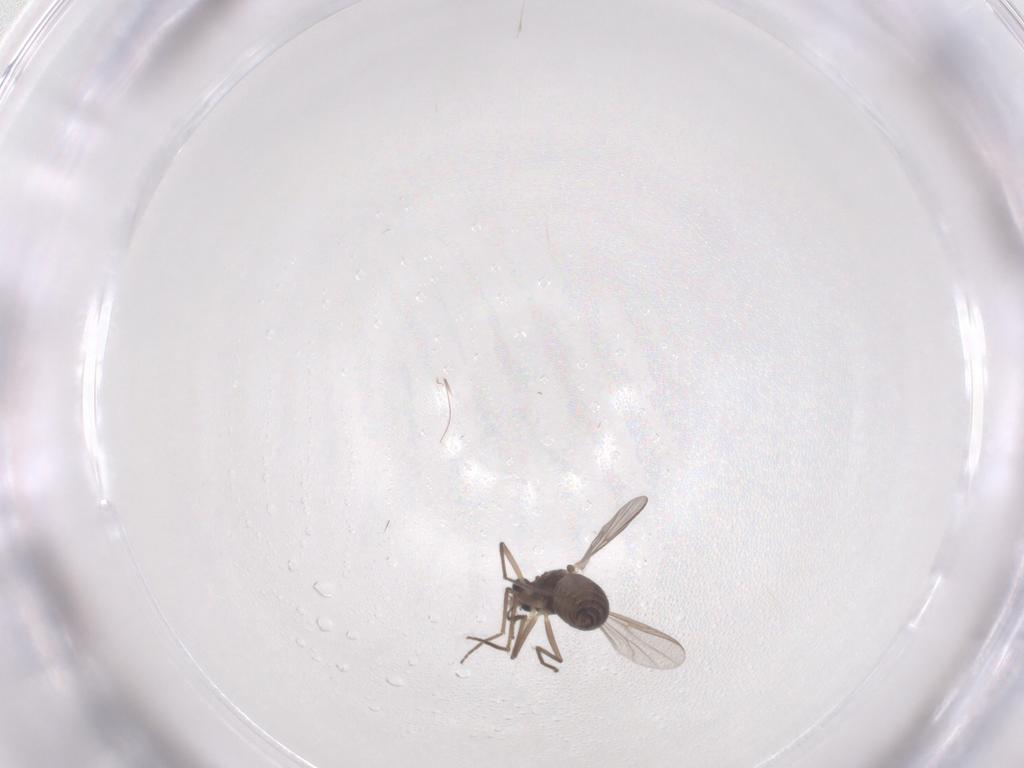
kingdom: Animalia
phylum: Arthropoda
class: Insecta
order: Diptera
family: Chironomidae
